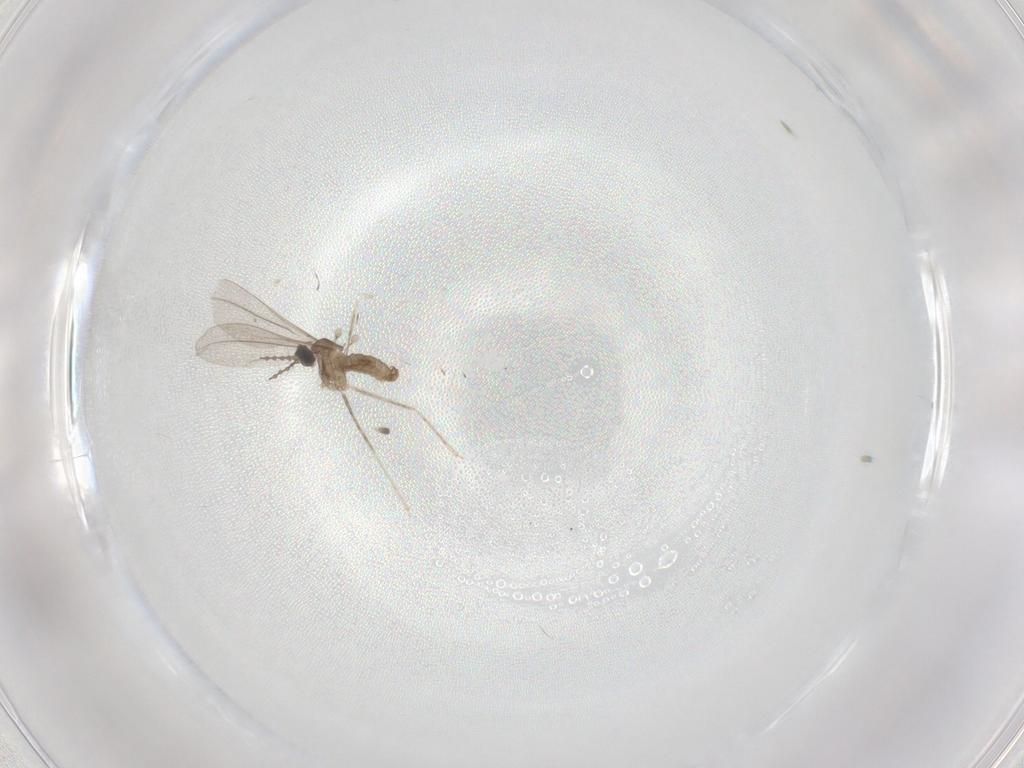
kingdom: Animalia
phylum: Arthropoda
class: Insecta
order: Diptera
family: Cecidomyiidae
